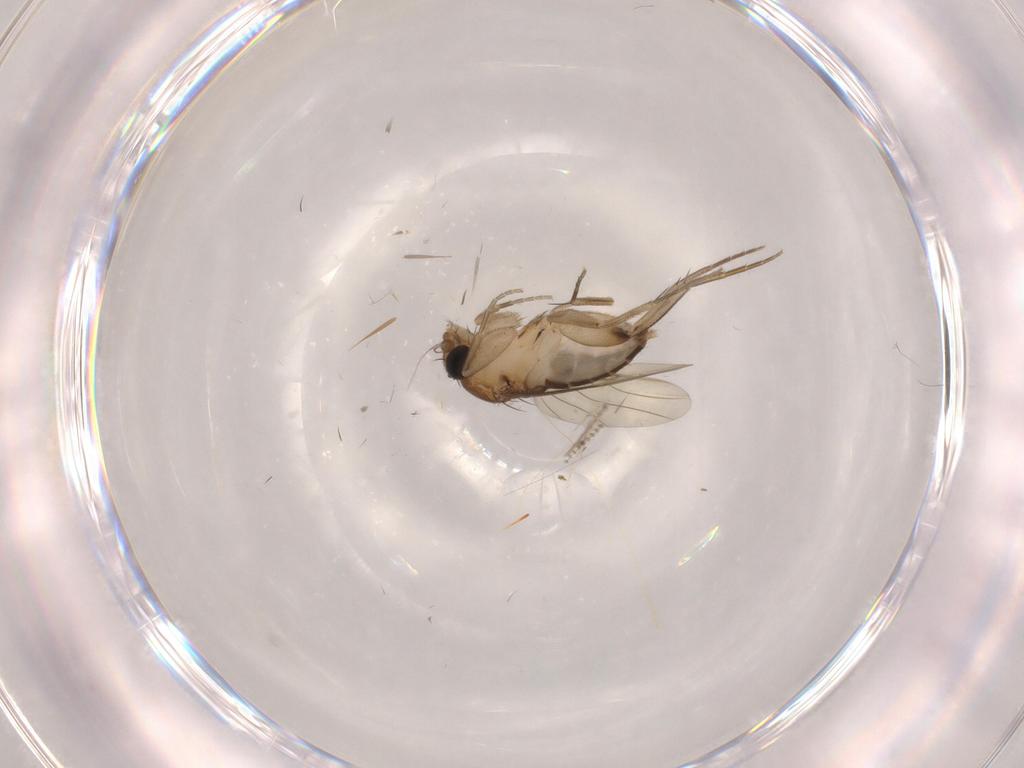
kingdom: Animalia
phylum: Arthropoda
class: Insecta
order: Diptera
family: Phoridae
